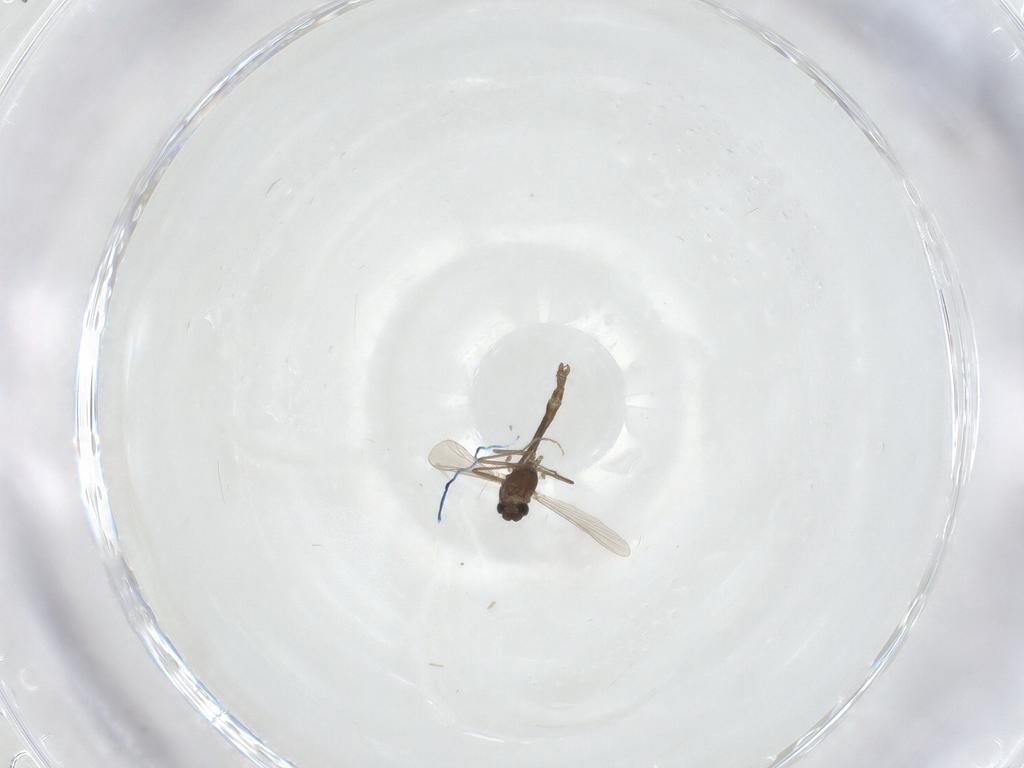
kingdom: Animalia
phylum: Arthropoda
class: Insecta
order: Diptera
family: Chironomidae
